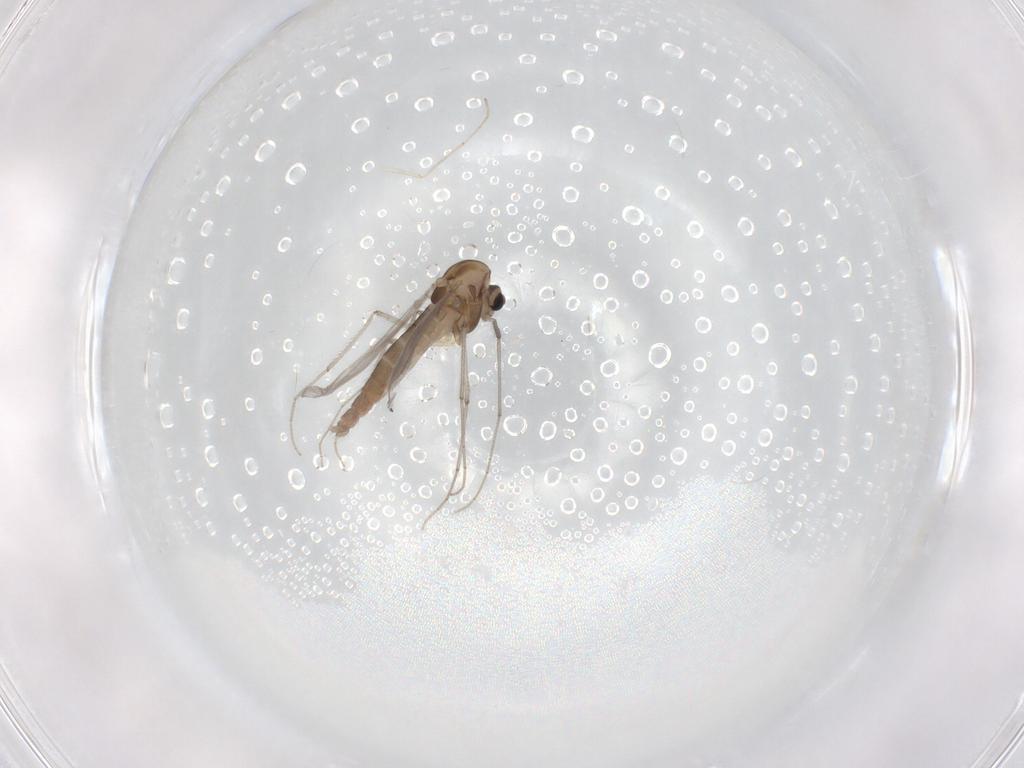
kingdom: Animalia
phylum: Arthropoda
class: Insecta
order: Diptera
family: Chironomidae
